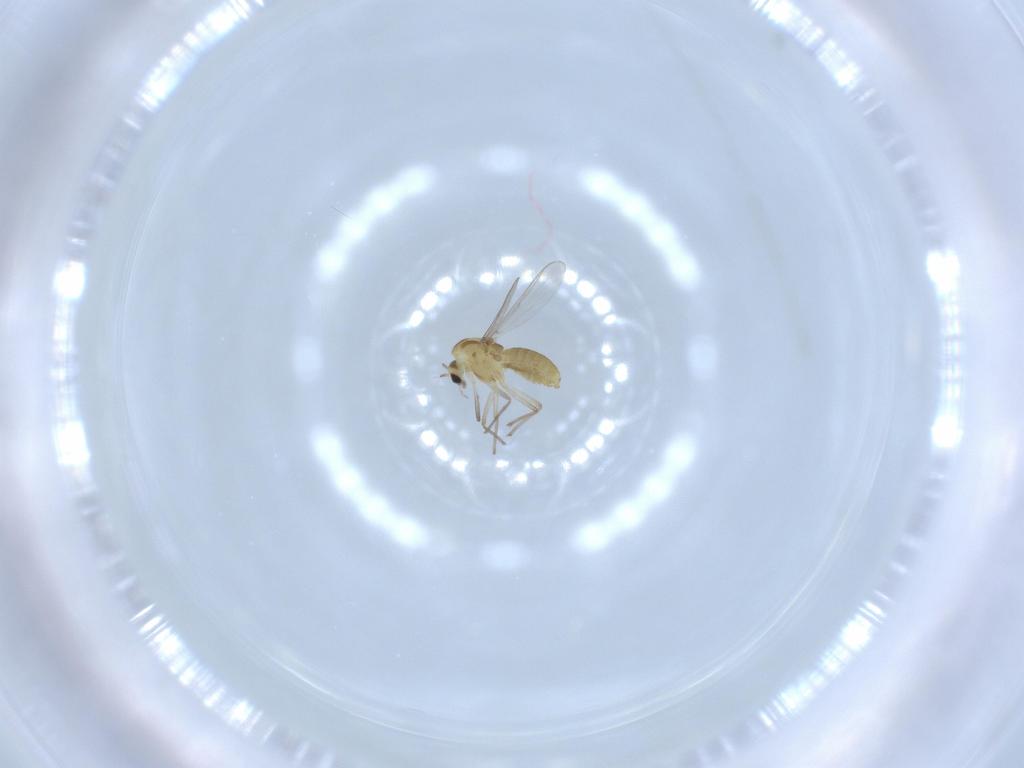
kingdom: Animalia
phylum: Arthropoda
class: Insecta
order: Diptera
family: Chironomidae
